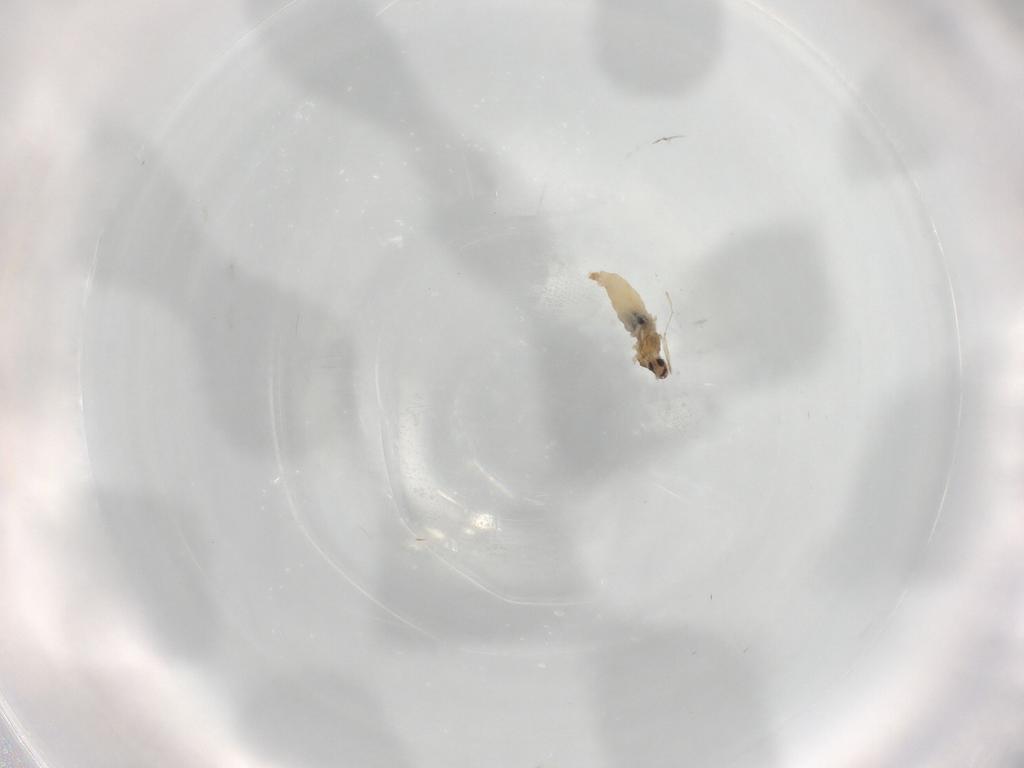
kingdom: Animalia
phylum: Arthropoda
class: Insecta
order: Diptera
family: Cecidomyiidae
